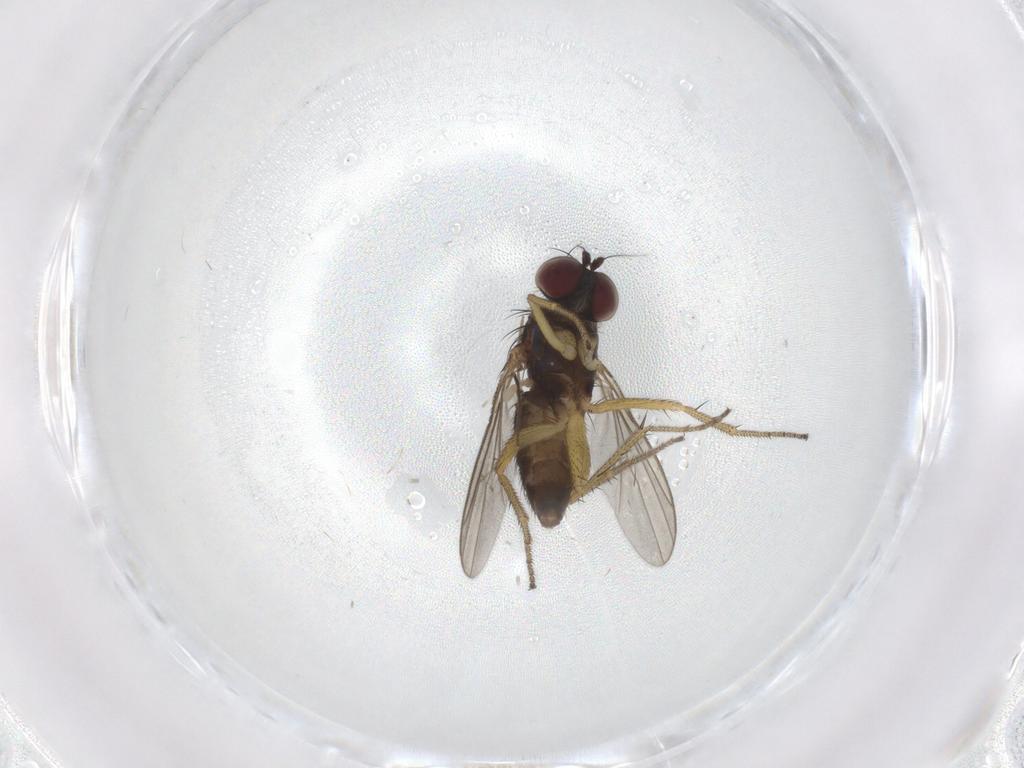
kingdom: Animalia
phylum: Arthropoda
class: Insecta
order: Diptera
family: Chironomidae
